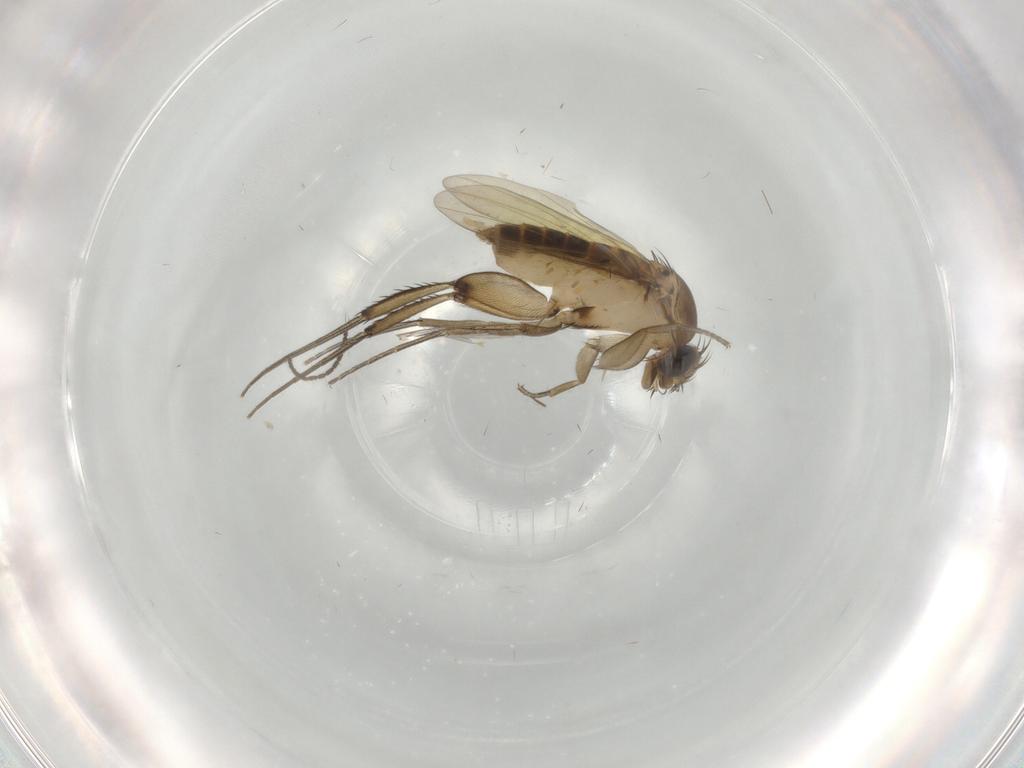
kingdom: Animalia
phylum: Arthropoda
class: Insecta
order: Diptera
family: Phoridae
